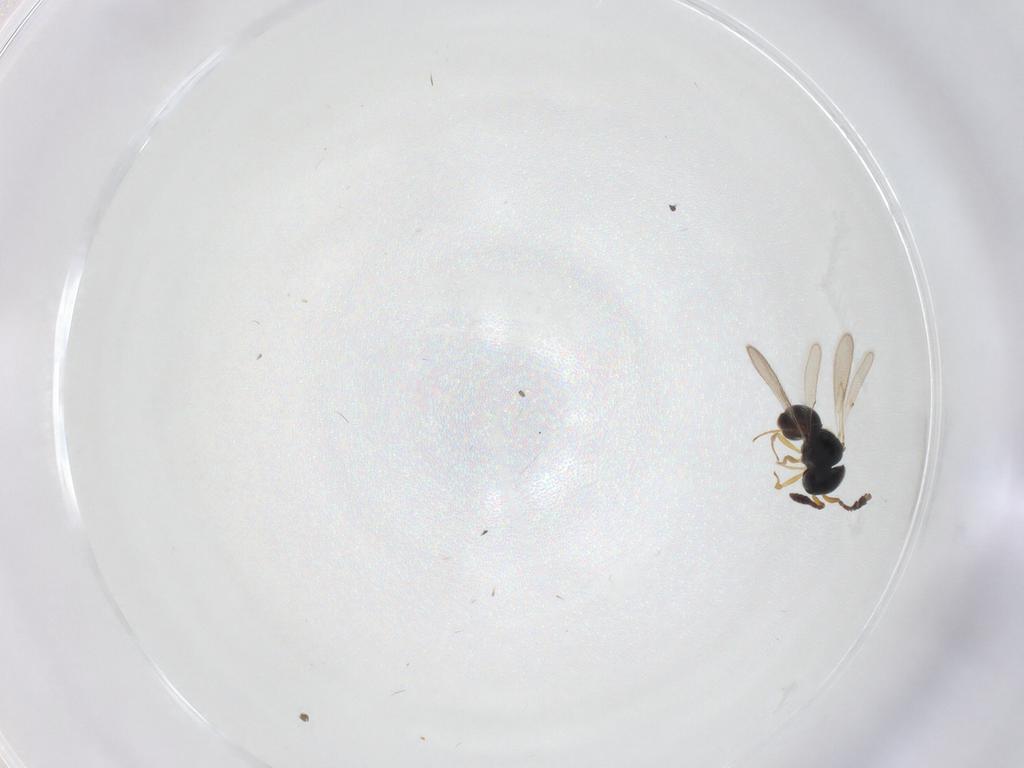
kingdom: Animalia
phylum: Arthropoda
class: Insecta
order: Hymenoptera
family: Scelionidae
